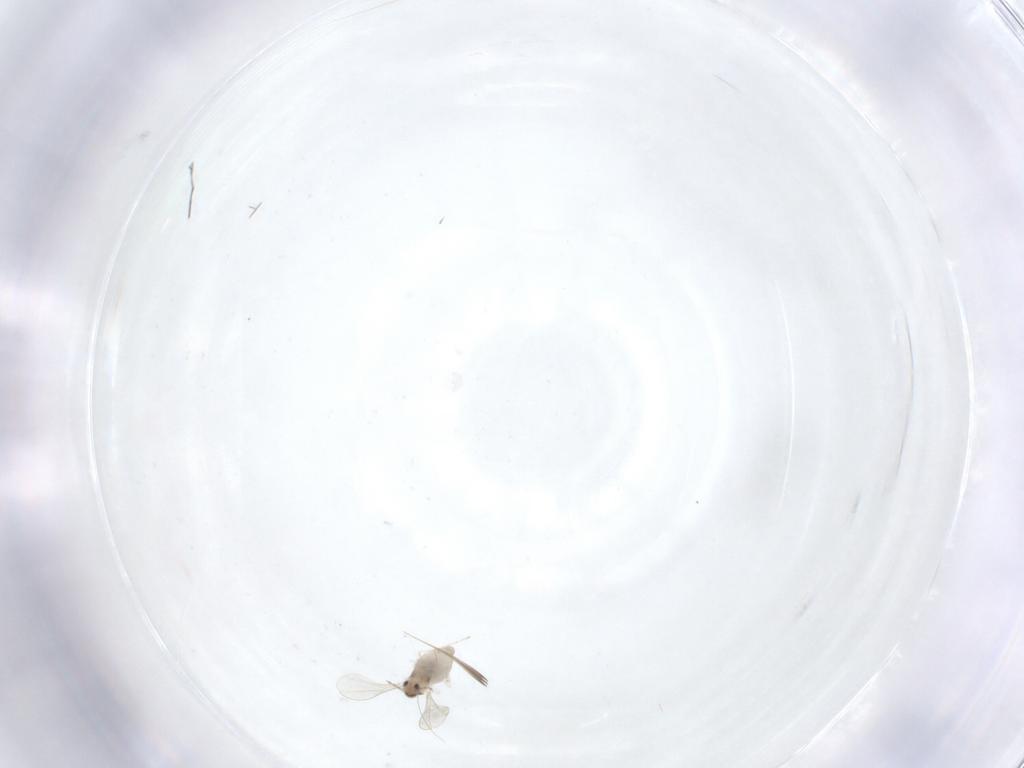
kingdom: Animalia
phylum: Arthropoda
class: Insecta
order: Diptera
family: Cecidomyiidae
